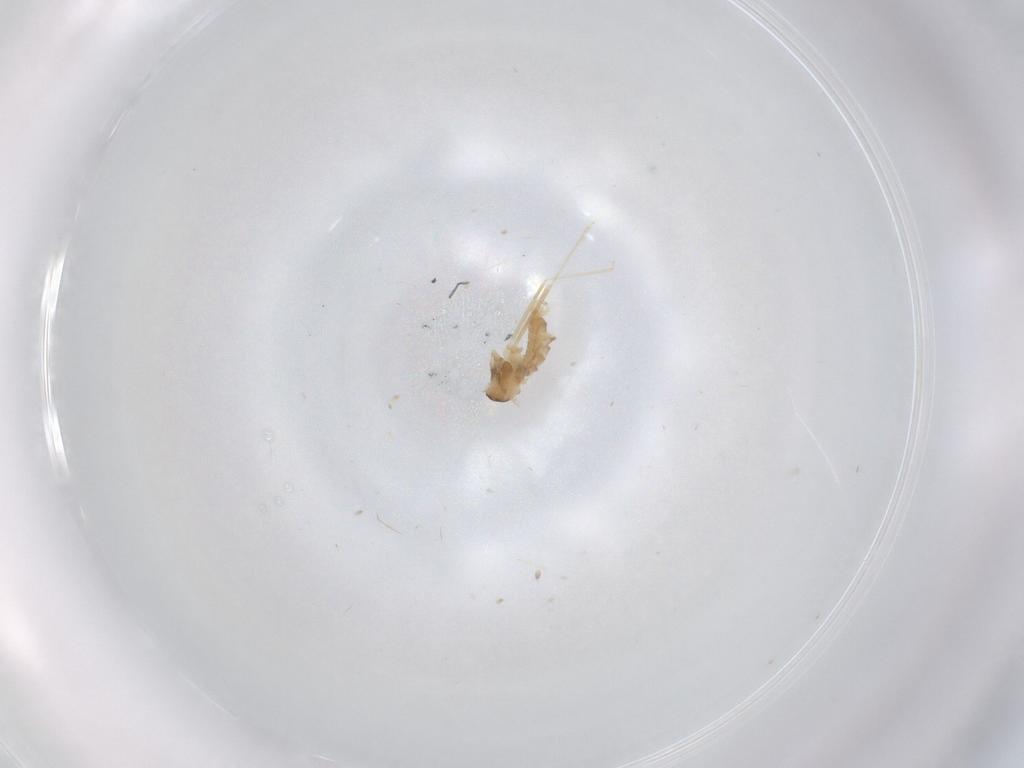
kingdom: Animalia
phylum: Arthropoda
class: Insecta
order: Diptera
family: Cecidomyiidae
